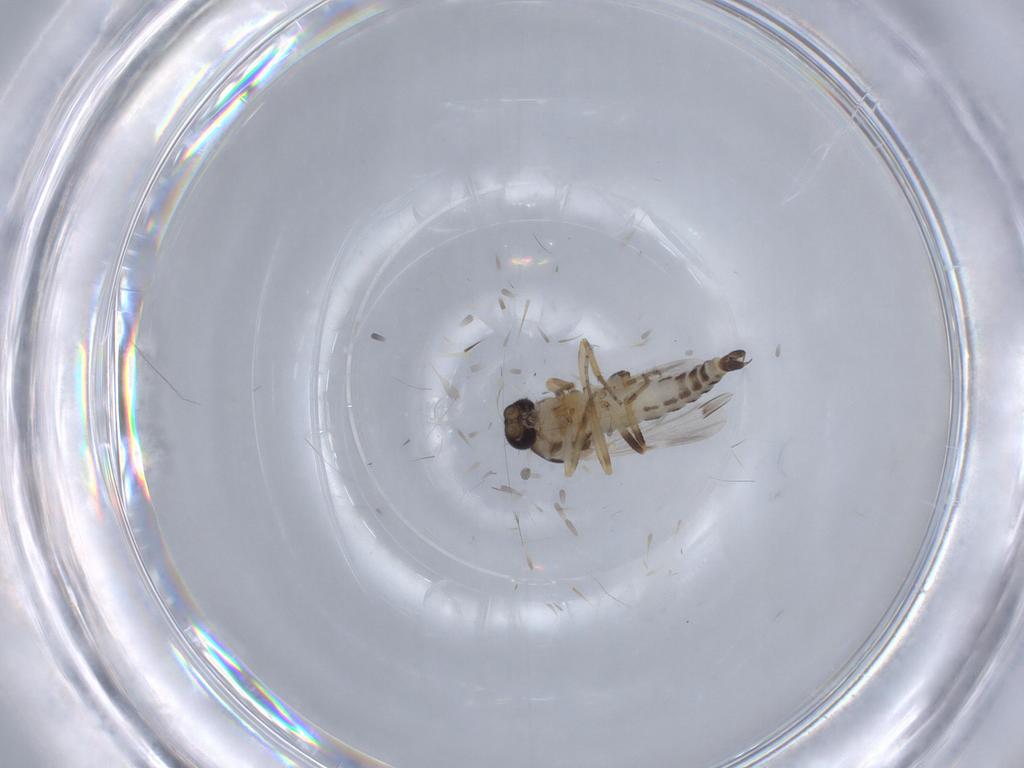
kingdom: Animalia
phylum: Arthropoda
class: Insecta
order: Diptera
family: Ceratopogonidae
